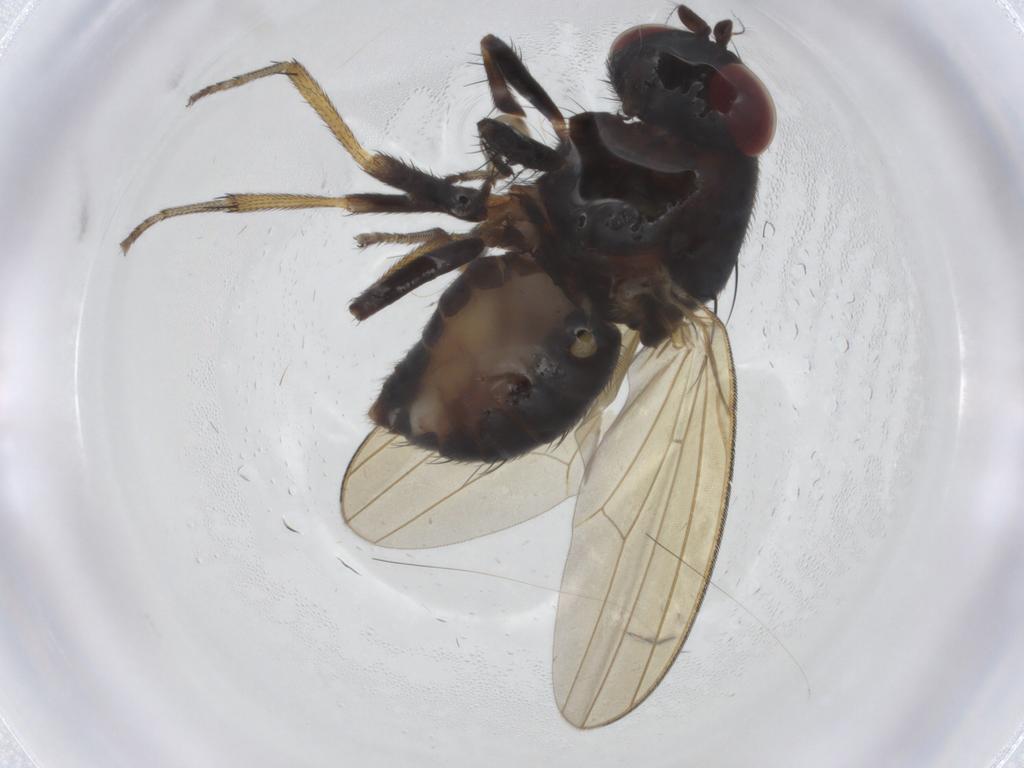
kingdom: Animalia
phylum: Arthropoda
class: Insecta
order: Diptera
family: Lauxaniidae
